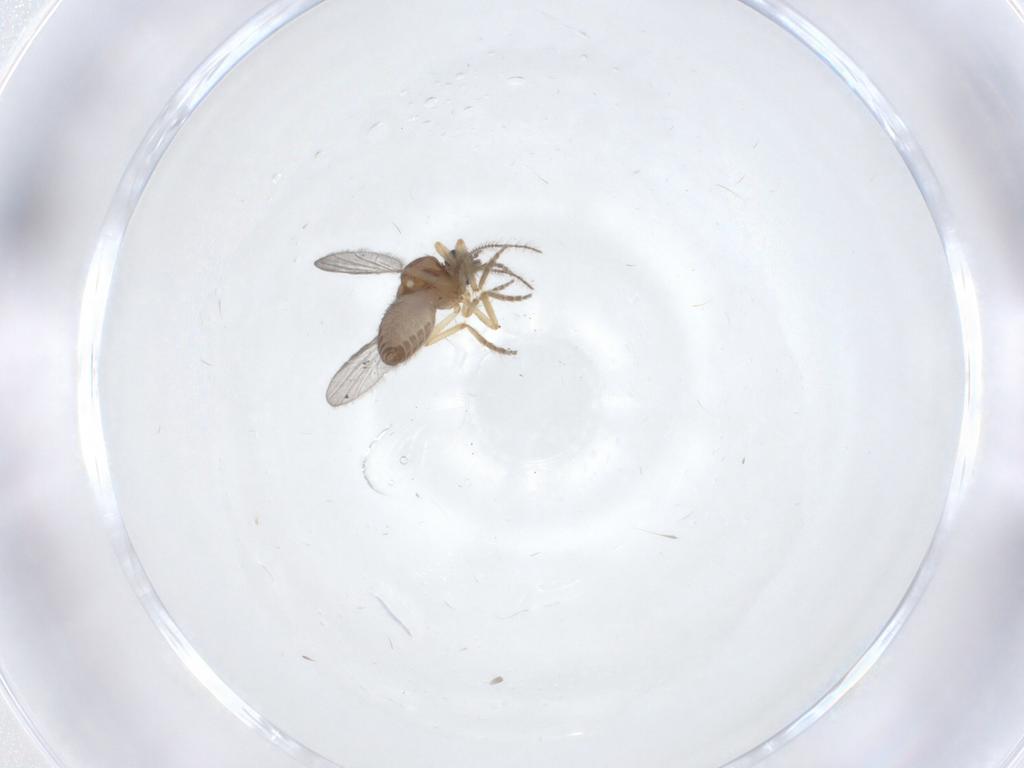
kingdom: Animalia
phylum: Arthropoda
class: Insecta
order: Diptera
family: Ceratopogonidae
